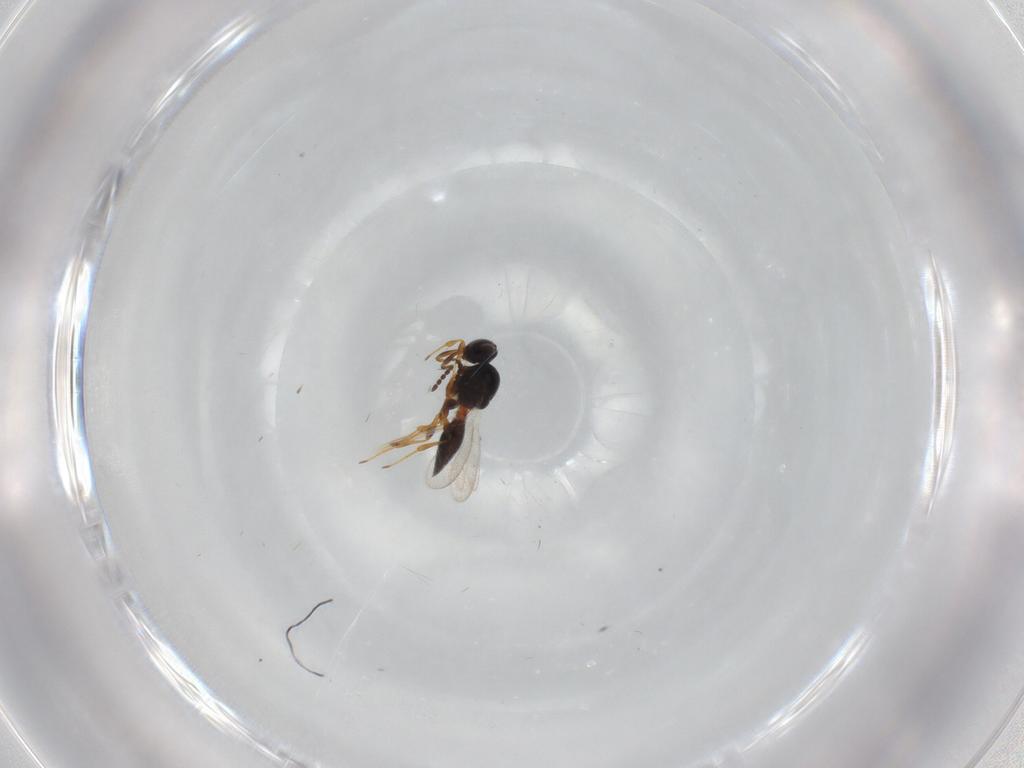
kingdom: Animalia
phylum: Arthropoda
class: Insecta
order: Hymenoptera
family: Platygastridae
